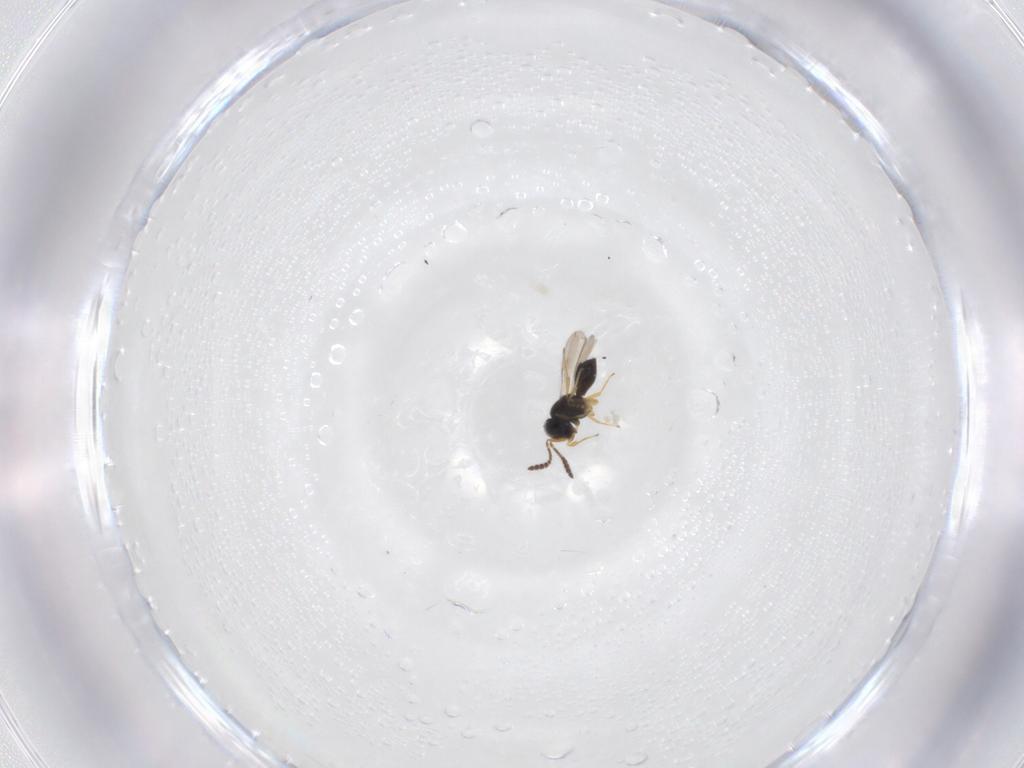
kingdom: Animalia
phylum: Arthropoda
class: Insecta
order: Hymenoptera
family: Scelionidae
